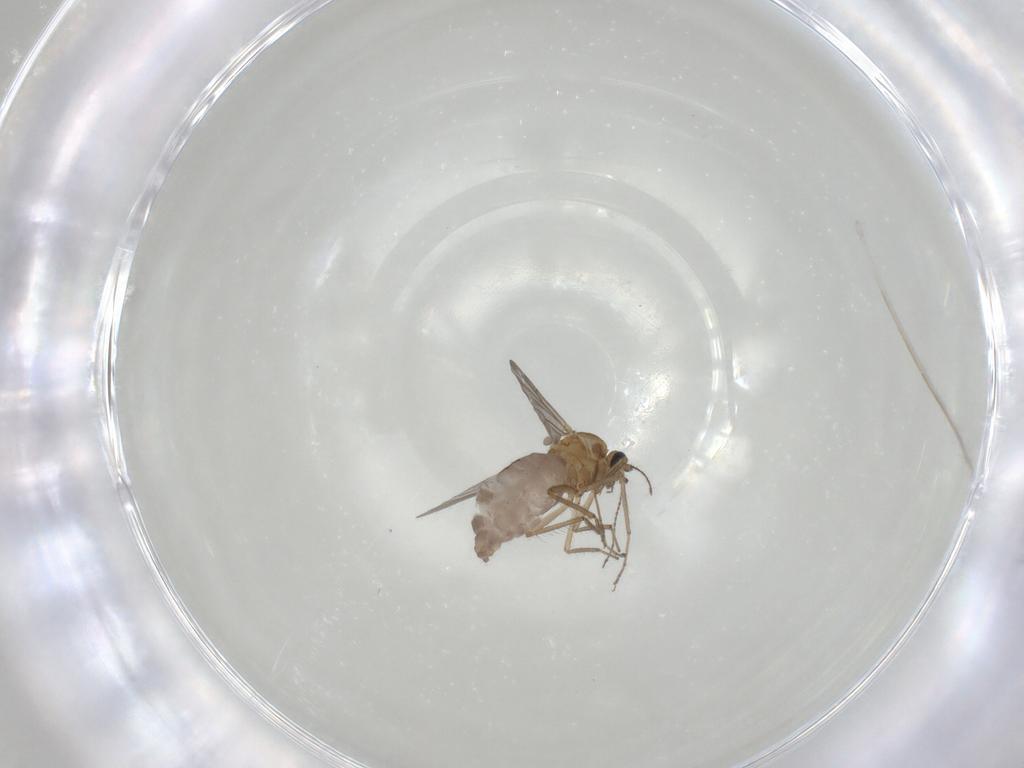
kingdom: Animalia
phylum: Arthropoda
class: Insecta
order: Diptera
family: Ceratopogonidae
